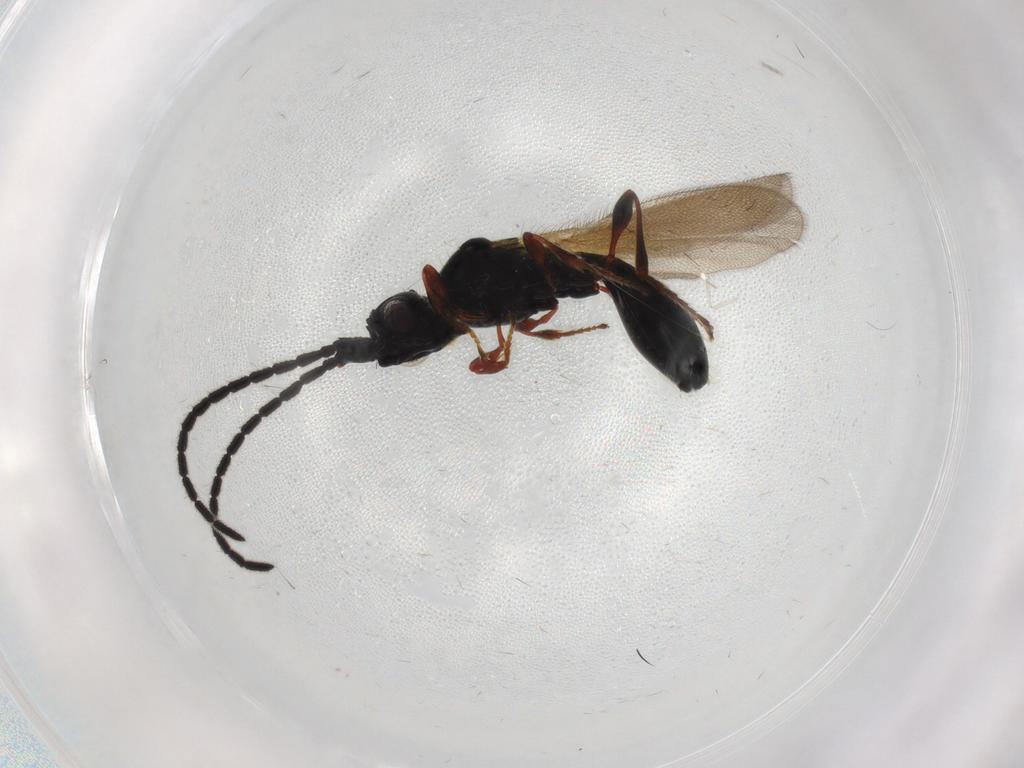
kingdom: Animalia
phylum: Arthropoda
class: Insecta
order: Hymenoptera
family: Diapriidae
